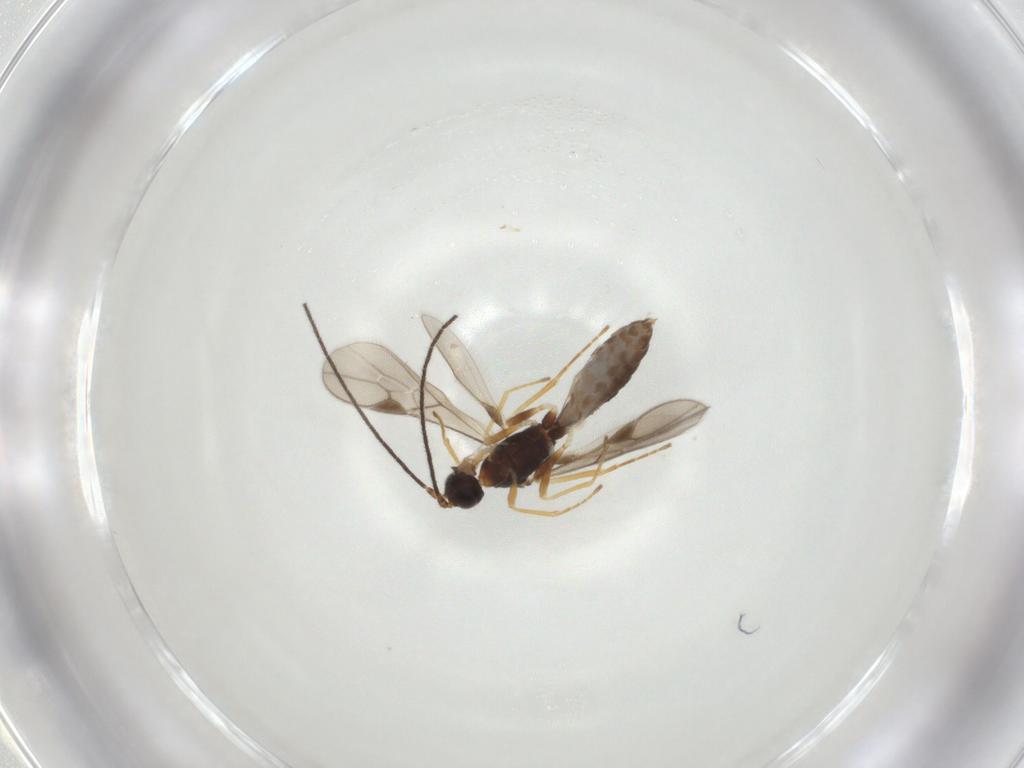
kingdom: Animalia
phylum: Arthropoda
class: Insecta
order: Hymenoptera
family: Braconidae
